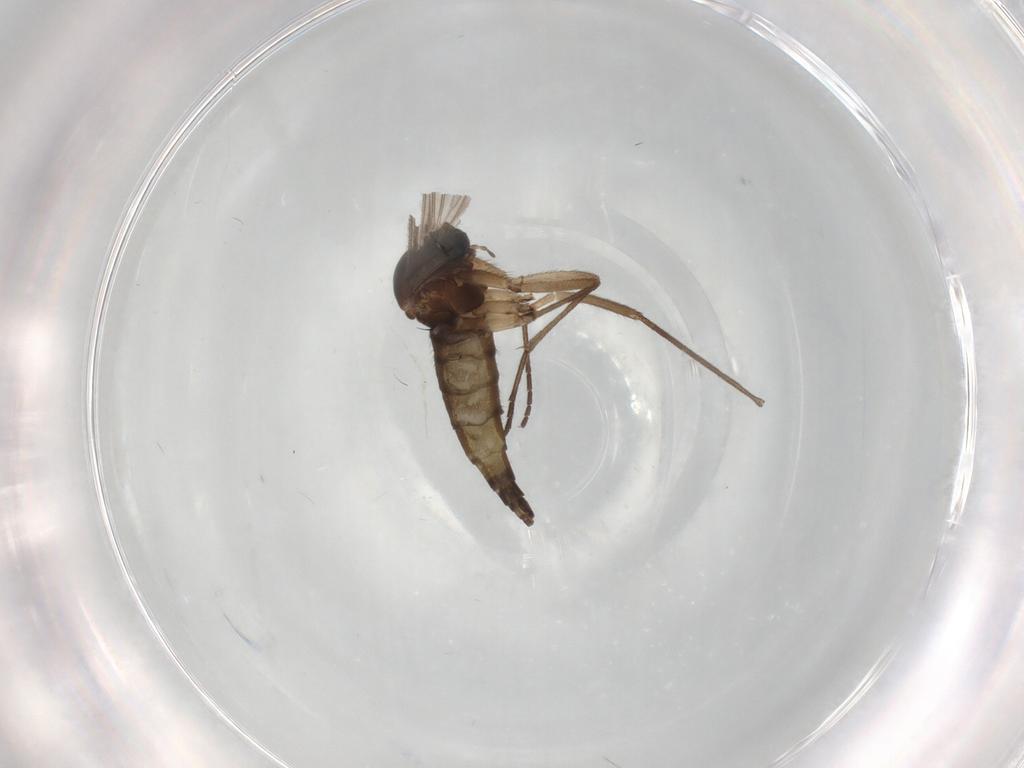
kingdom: Animalia
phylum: Arthropoda
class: Insecta
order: Diptera
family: Sciaridae
